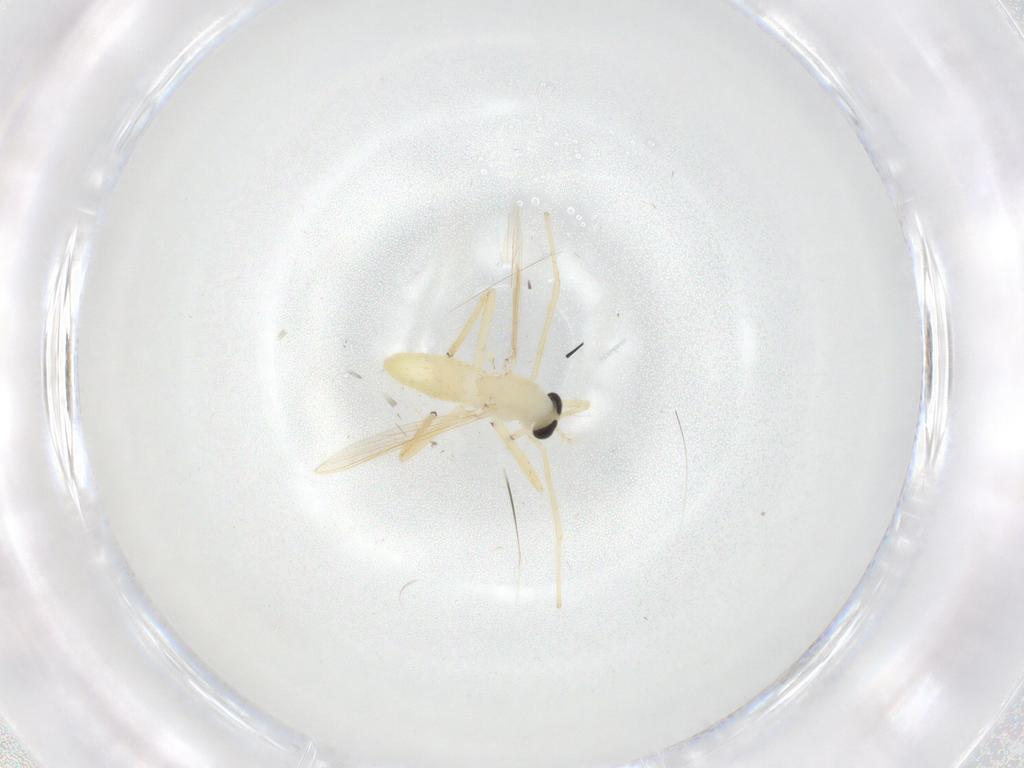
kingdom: Animalia
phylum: Arthropoda
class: Insecta
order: Diptera
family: Chironomidae
